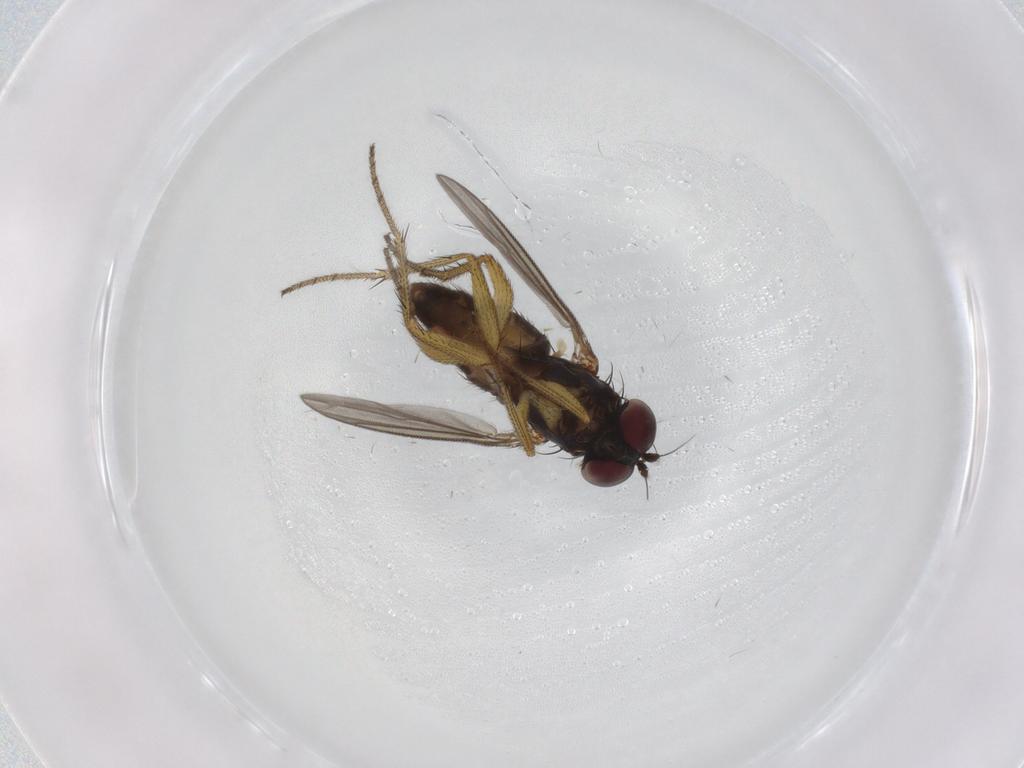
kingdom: Animalia
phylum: Arthropoda
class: Insecta
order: Diptera
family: Dolichopodidae
